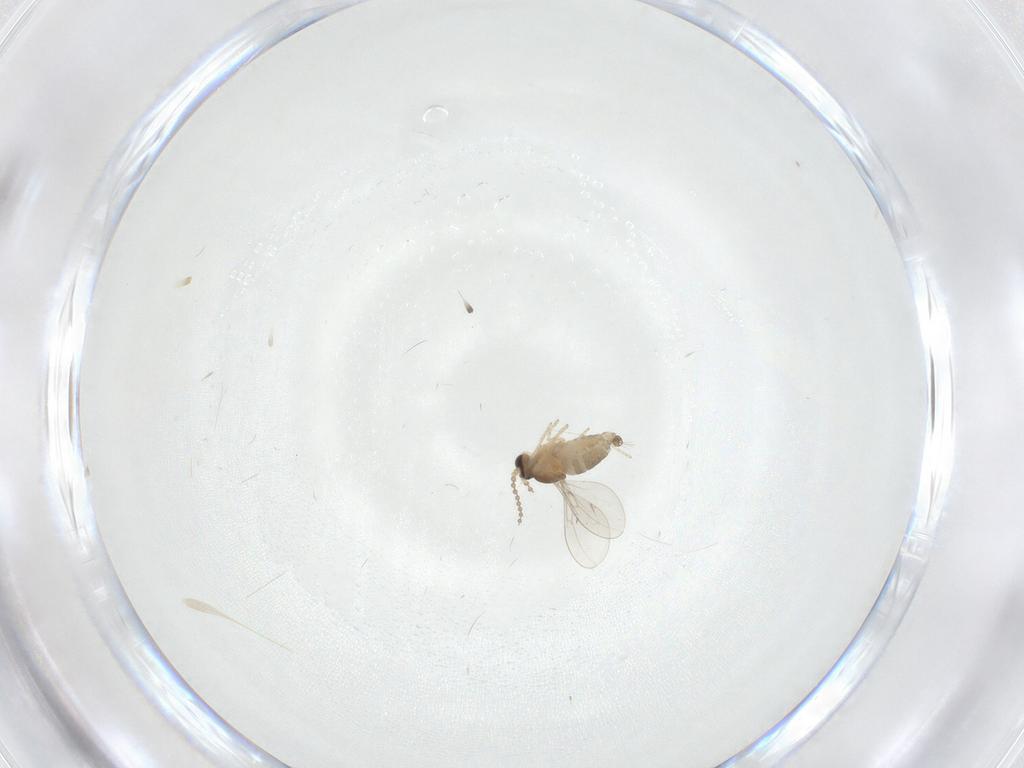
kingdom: Animalia
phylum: Arthropoda
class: Insecta
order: Diptera
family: Cecidomyiidae
